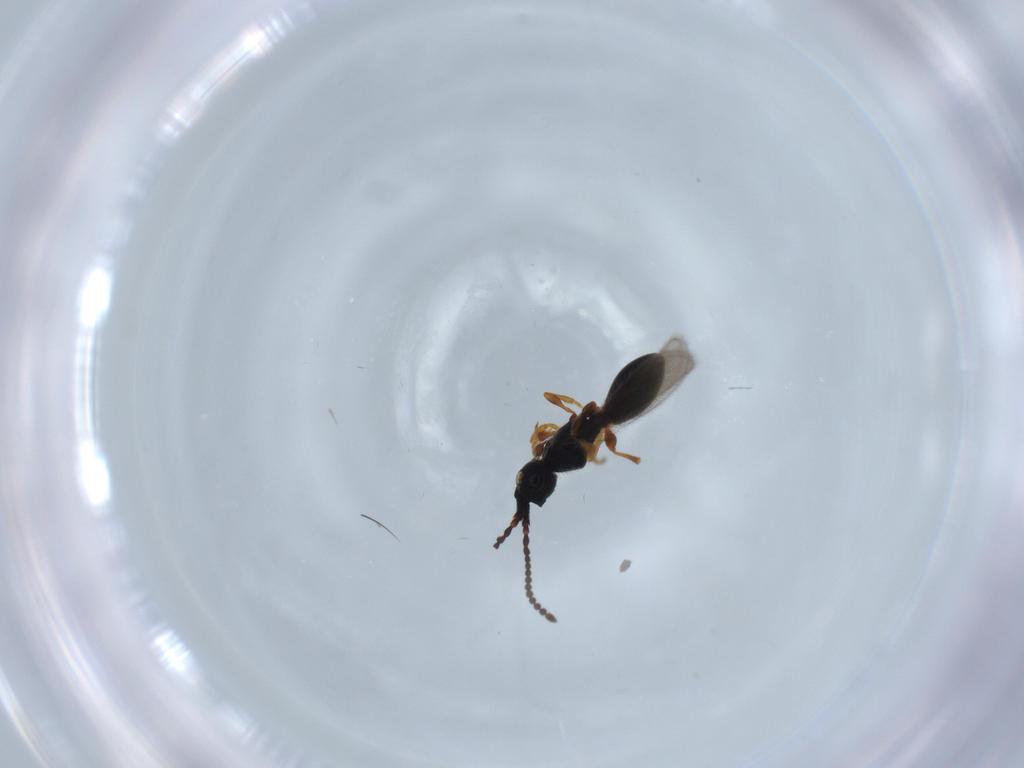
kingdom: Animalia
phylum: Arthropoda
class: Insecta
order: Hymenoptera
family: Diapriidae
